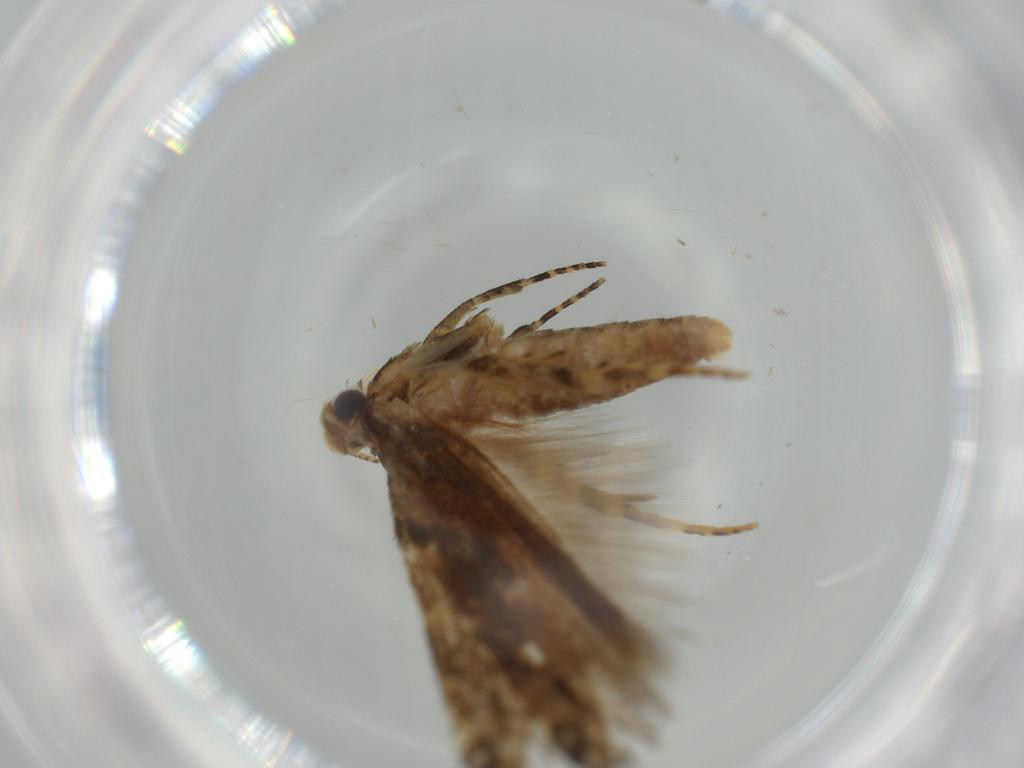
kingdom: Animalia
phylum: Arthropoda
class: Insecta
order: Lepidoptera
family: Gelechiidae
